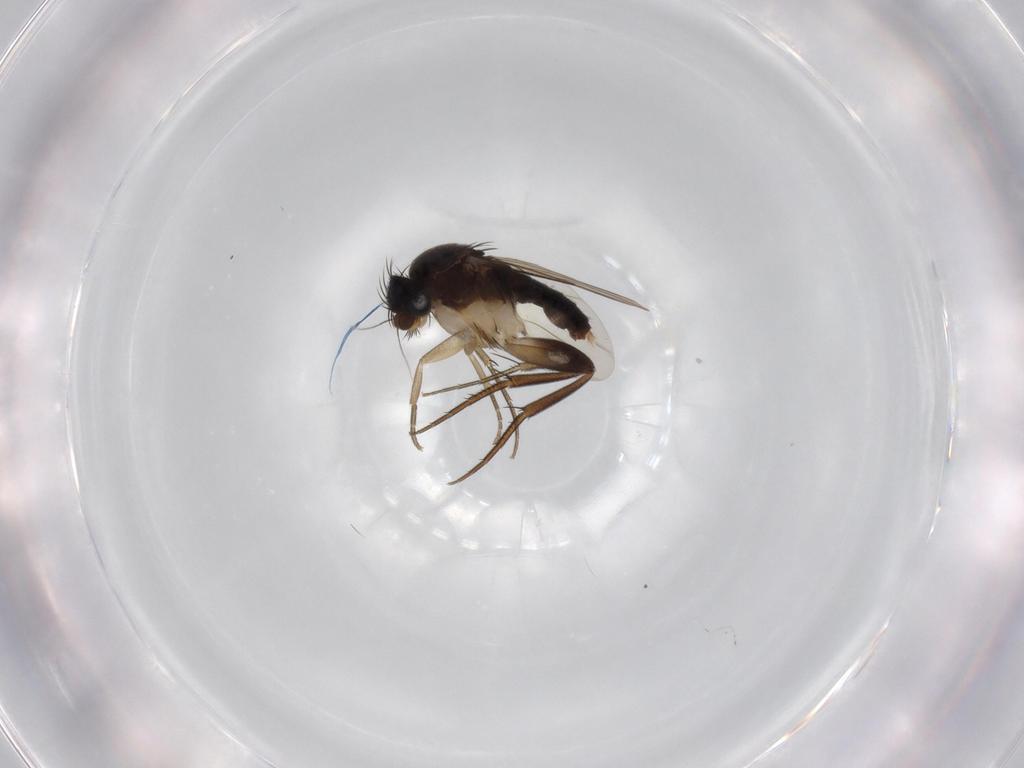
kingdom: Animalia
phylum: Arthropoda
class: Insecta
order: Diptera
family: Phoridae
